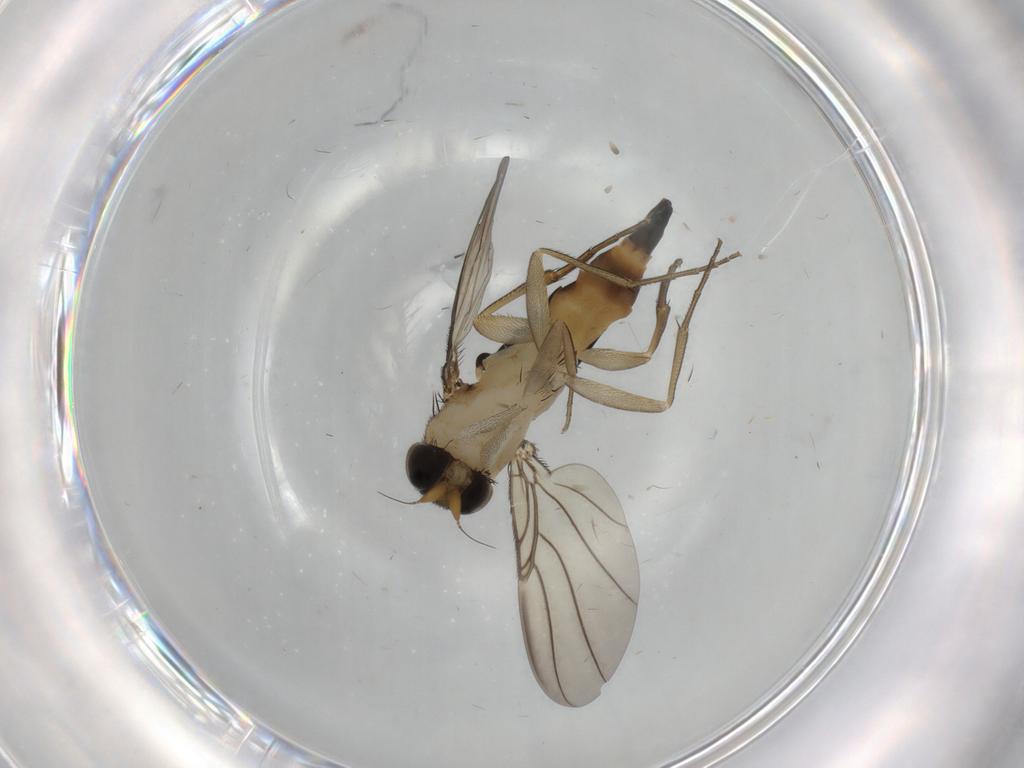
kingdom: Animalia
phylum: Arthropoda
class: Insecta
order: Diptera
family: Phoridae
